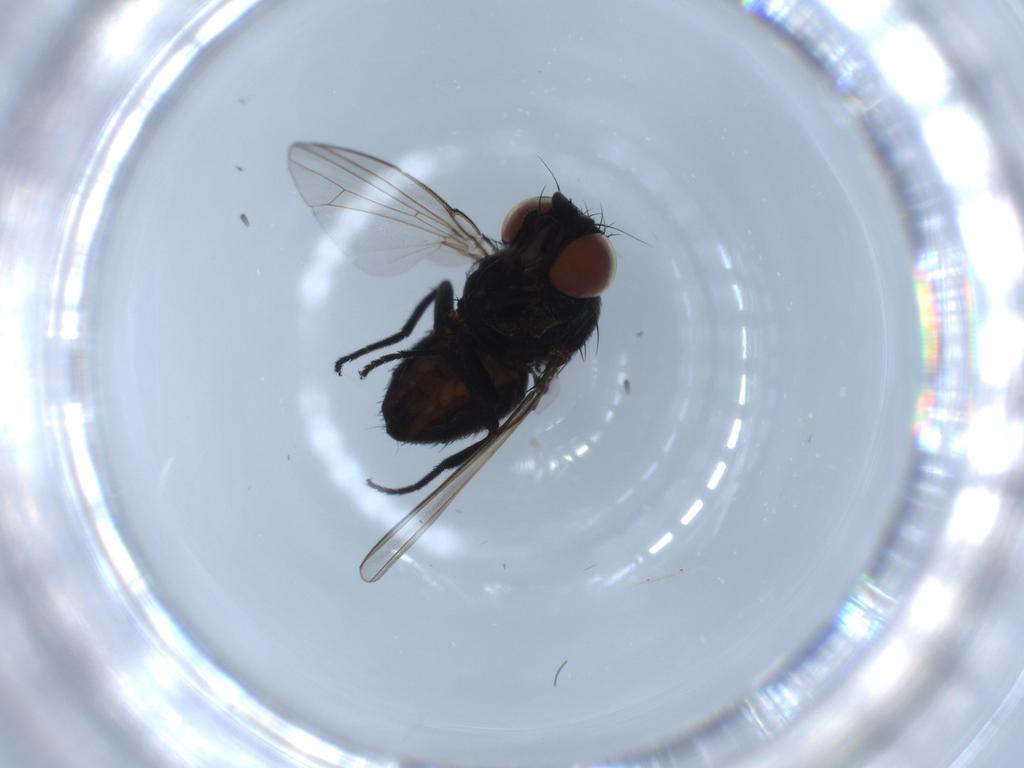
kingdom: Animalia
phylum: Arthropoda
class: Insecta
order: Diptera
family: Milichiidae
